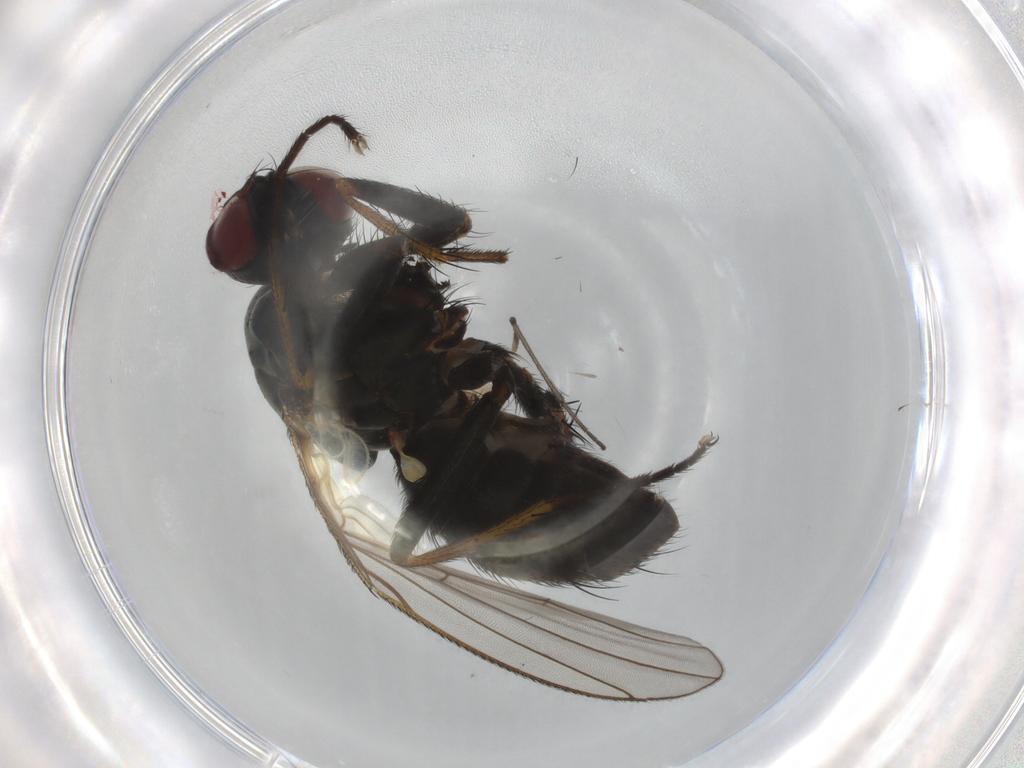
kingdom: Animalia
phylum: Arthropoda
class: Insecta
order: Diptera
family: Muscidae
